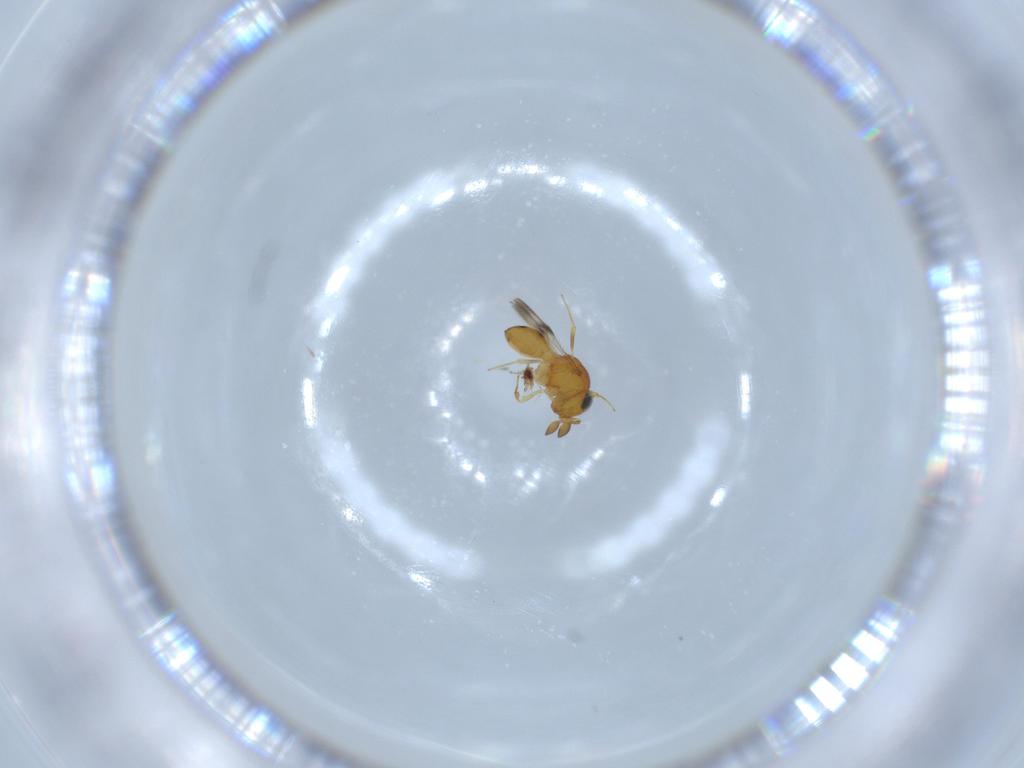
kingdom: Animalia
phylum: Arthropoda
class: Insecta
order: Hymenoptera
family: Scelionidae
